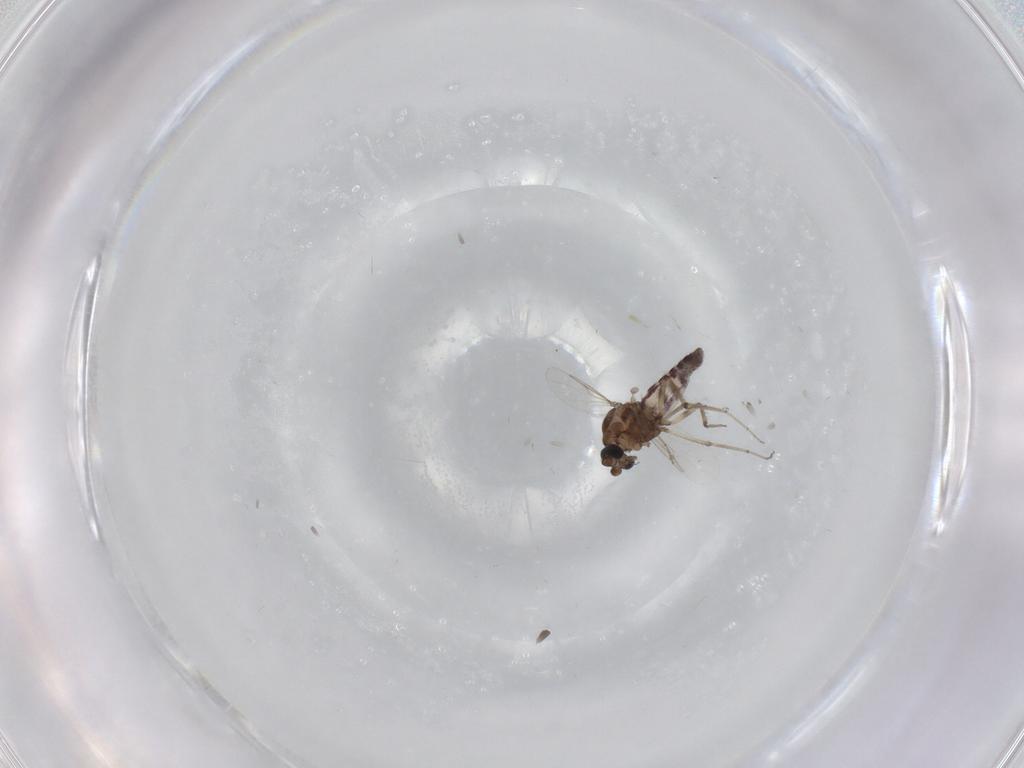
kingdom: Animalia
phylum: Arthropoda
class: Insecta
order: Diptera
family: Ceratopogonidae
